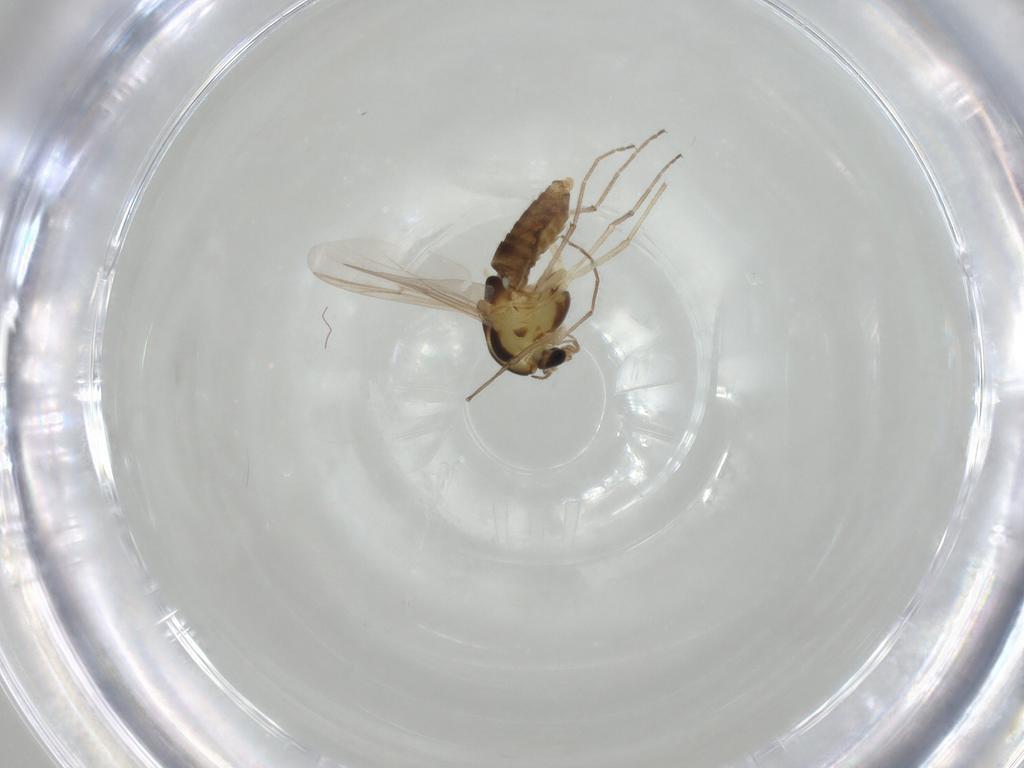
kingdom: Animalia
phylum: Arthropoda
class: Insecta
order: Diptera
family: Chironomidae
